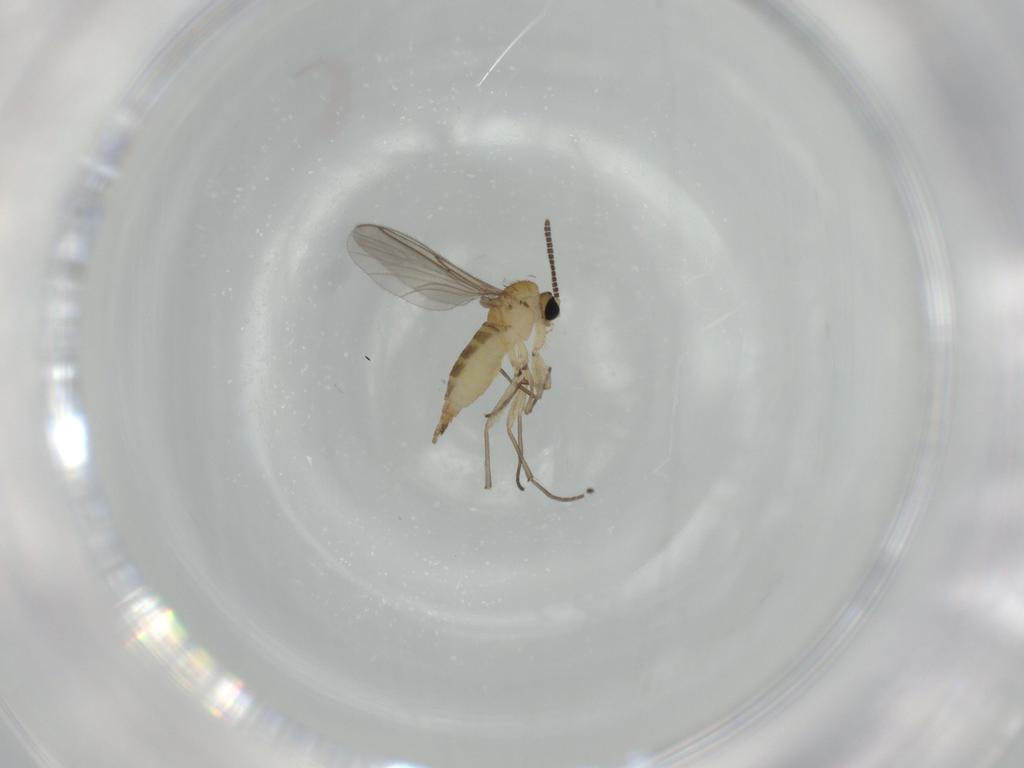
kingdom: Animalia
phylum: Arthropoda
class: Insecta
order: Diptera
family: Sciaridae
